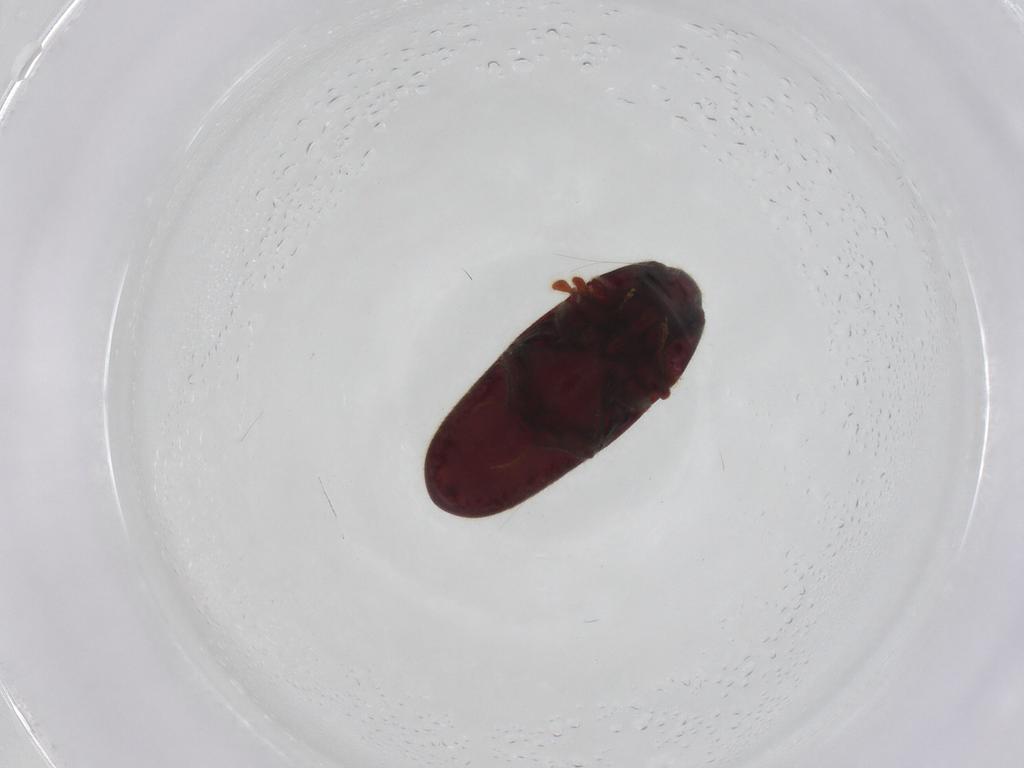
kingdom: Animalia
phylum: Arthropoda
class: Insecta
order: Coleoptera
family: Throscidae
